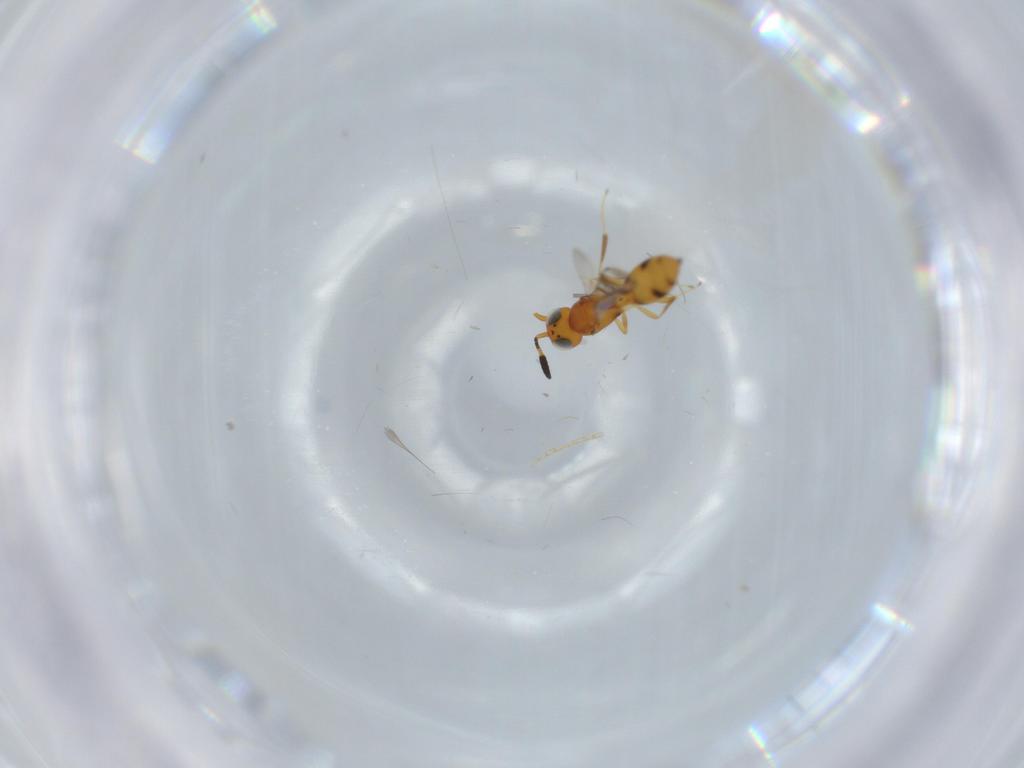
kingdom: Animalia
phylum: Arthropoda
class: Insecta
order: Hymenoptera
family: Scelionidae
